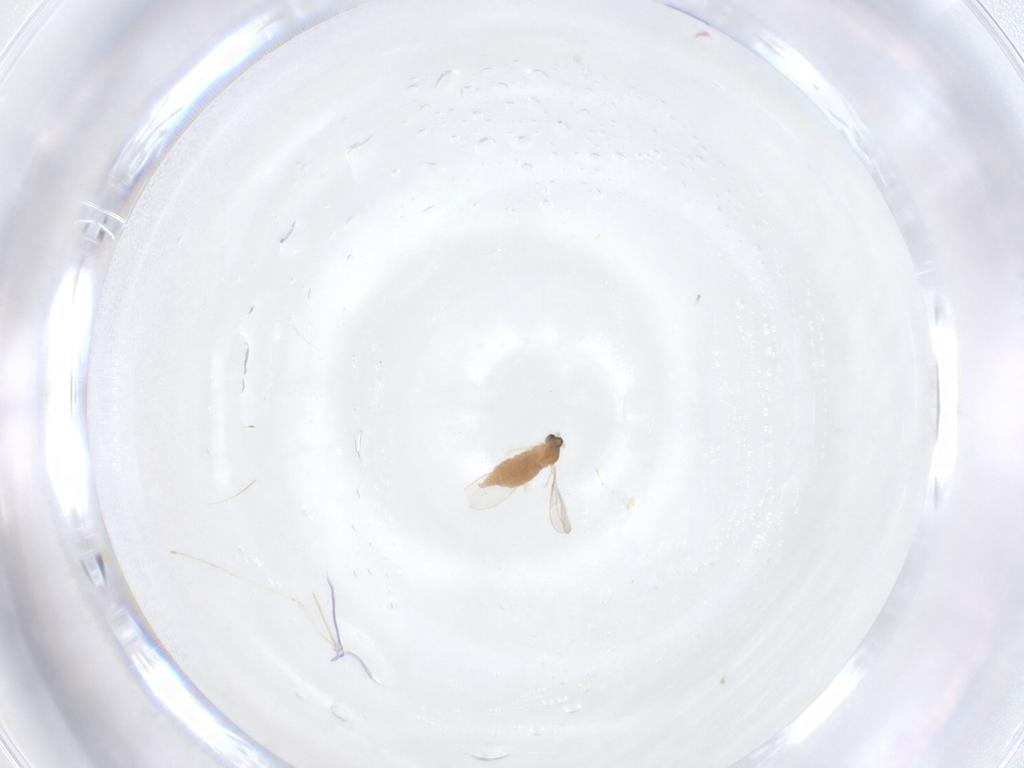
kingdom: Animalia
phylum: Arthropoda
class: Insecta
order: Diptera
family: Cecidomyiidae
